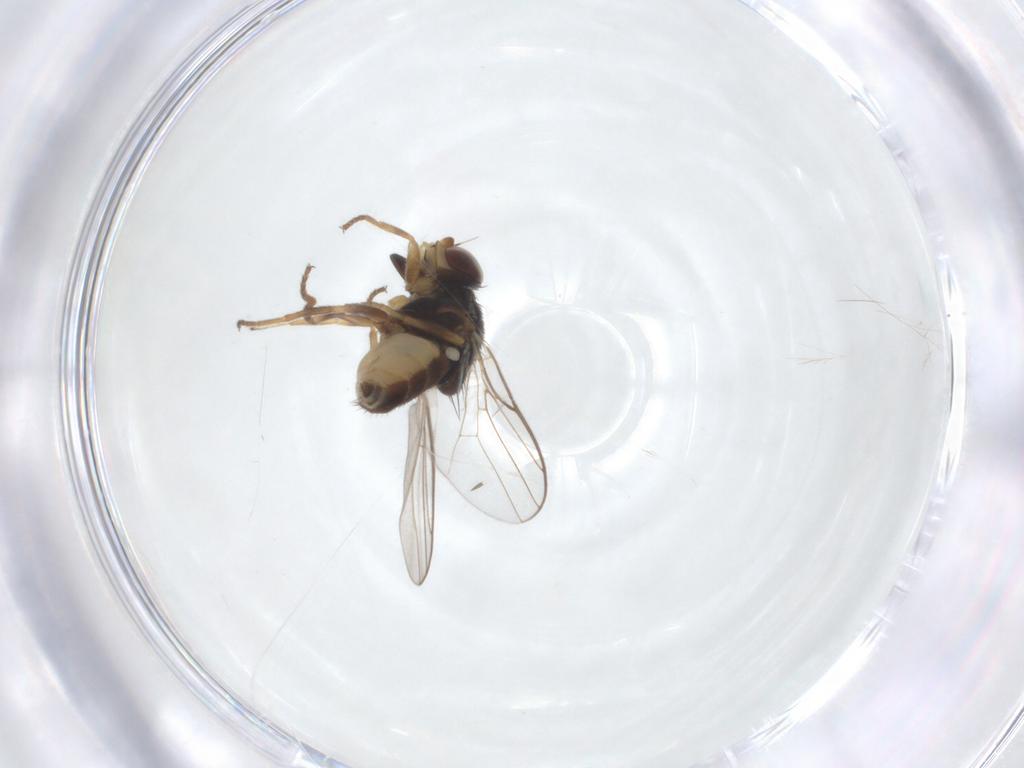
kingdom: Animalia
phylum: Arthropoda
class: Insecta
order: Diptera
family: Chloropidae
